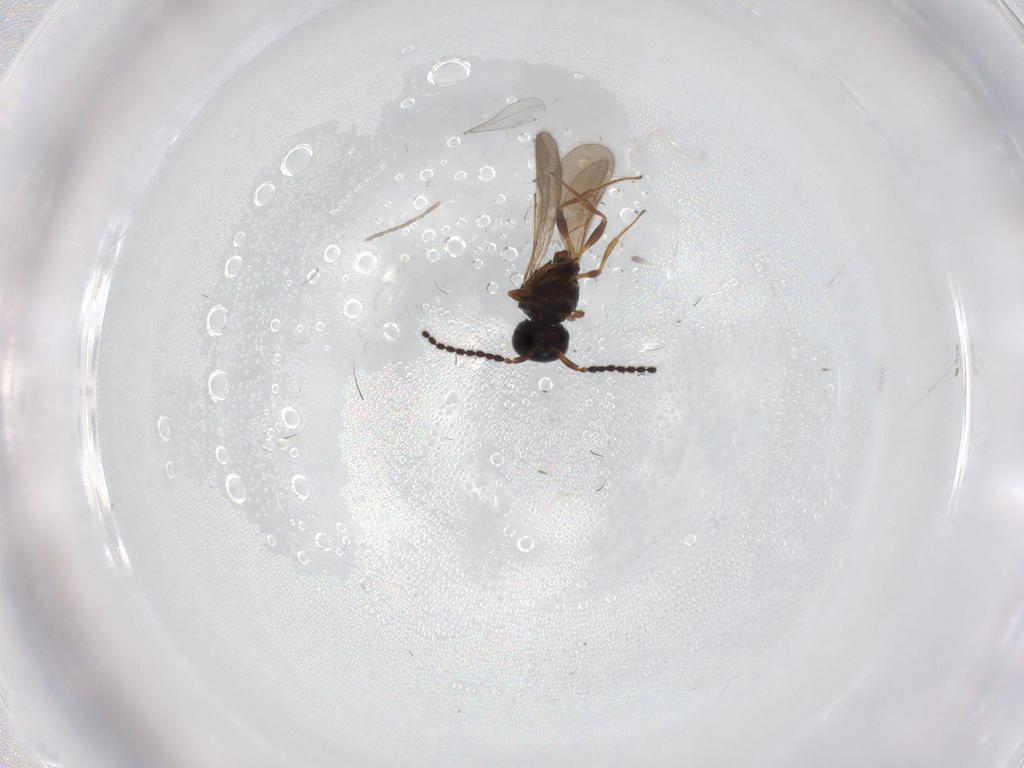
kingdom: Animalia
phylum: Arthropoda
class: Insecta
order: Hymenoptera
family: Scelionidae
